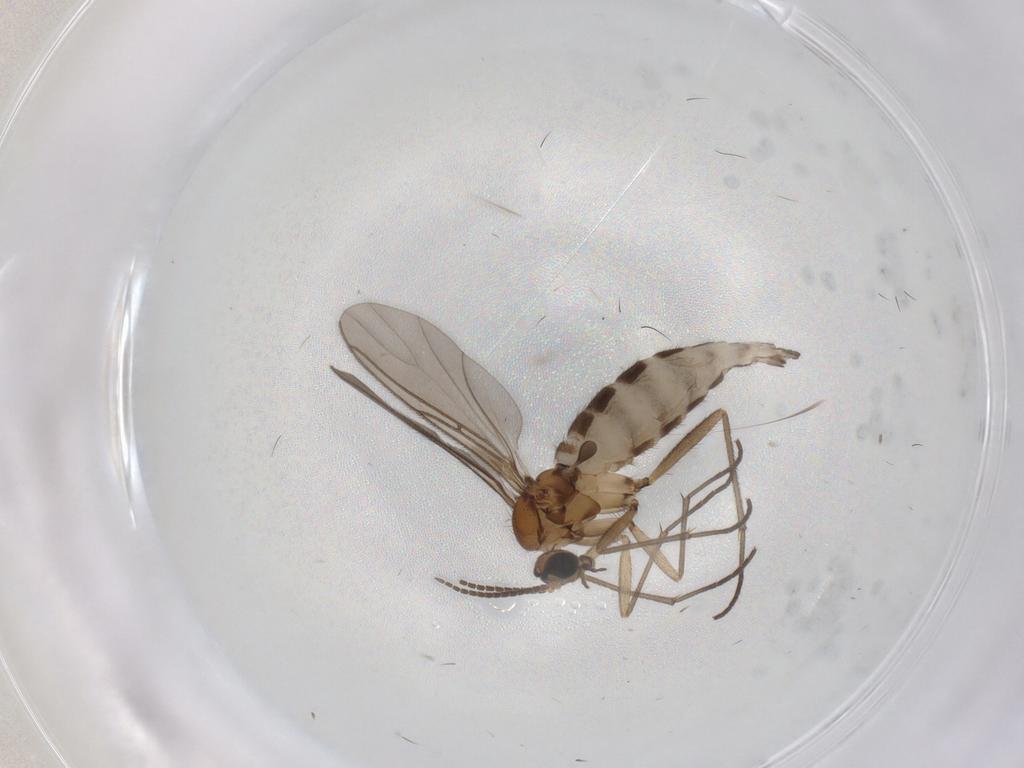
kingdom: Animalia
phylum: Arthropoda
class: Insecta
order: Diptera
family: Sciaridae
